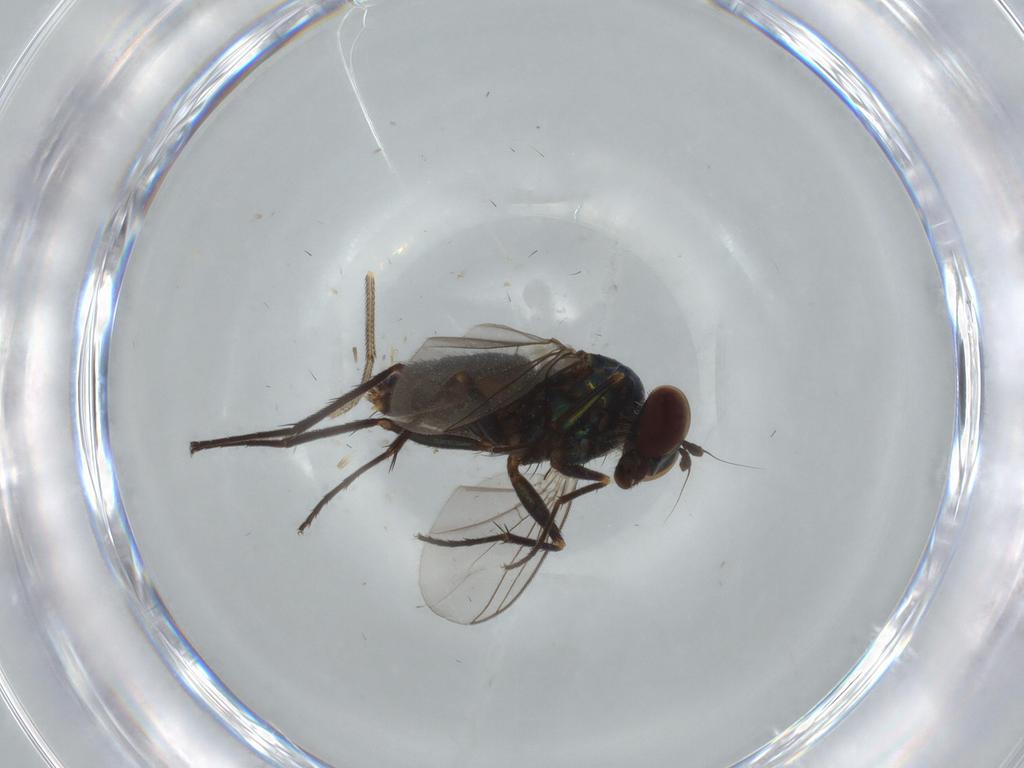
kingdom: Animalia
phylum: Arthropoda
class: Insecta
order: Diptera
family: Dolichopodidae
